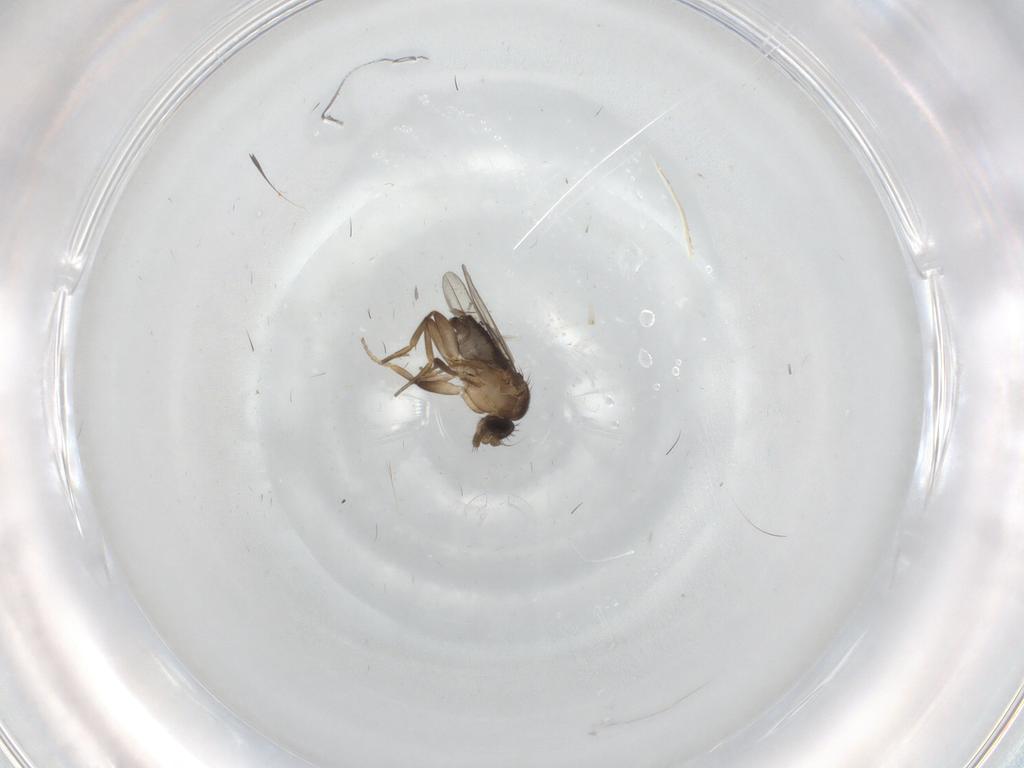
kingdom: Animalia
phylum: Arthropoda
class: Insecta
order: Diptera
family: Phoridae
